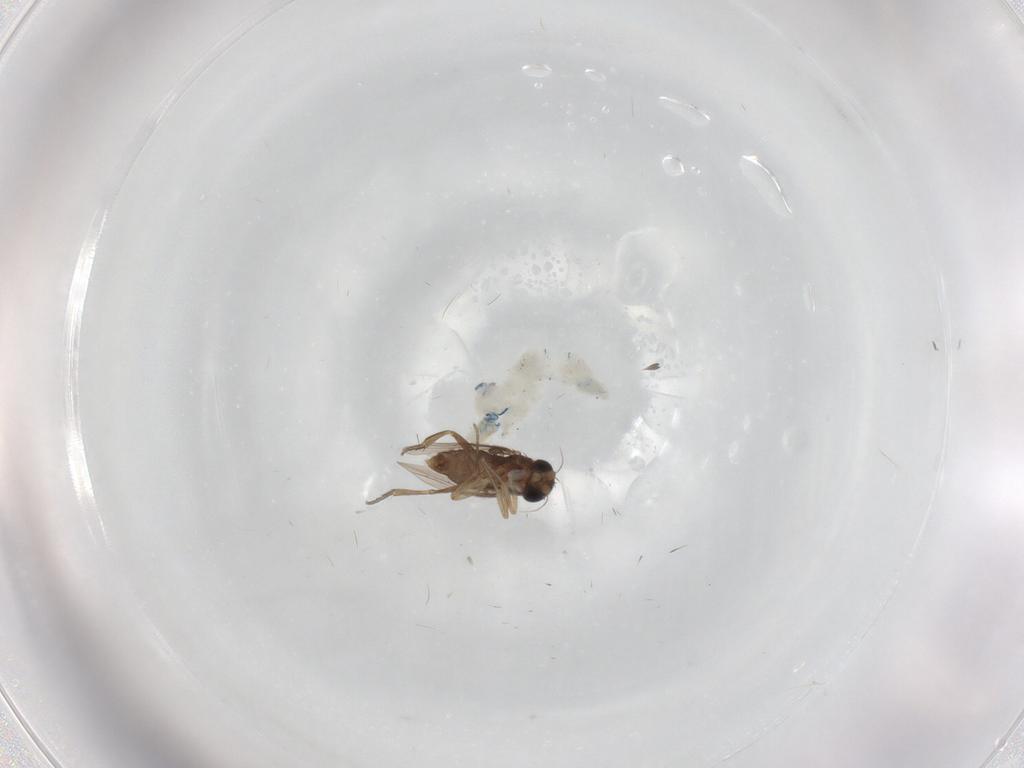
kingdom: Animalia
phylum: Arthropoda
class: Insecta
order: Diptera
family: Phoridae
